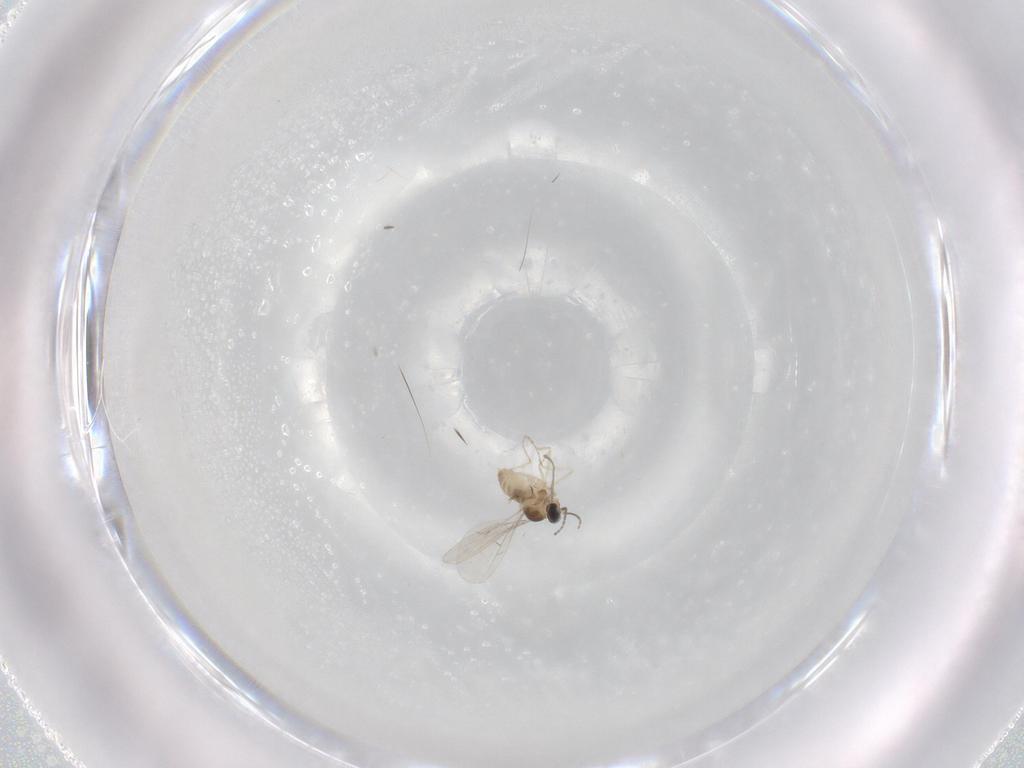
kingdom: Animalia
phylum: Arthropoda
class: Insecta
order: Diptera
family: Cecidomyiidae
